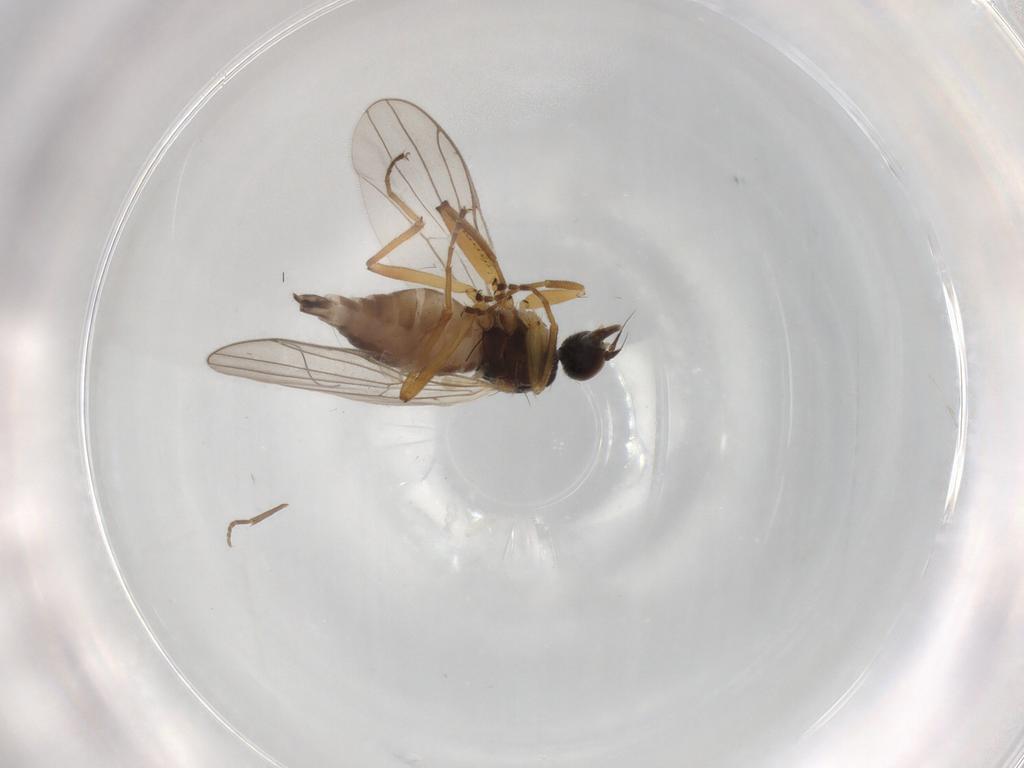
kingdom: Animalia
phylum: Arthropoda
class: Insecta
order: Diptera
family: Hybotidae
